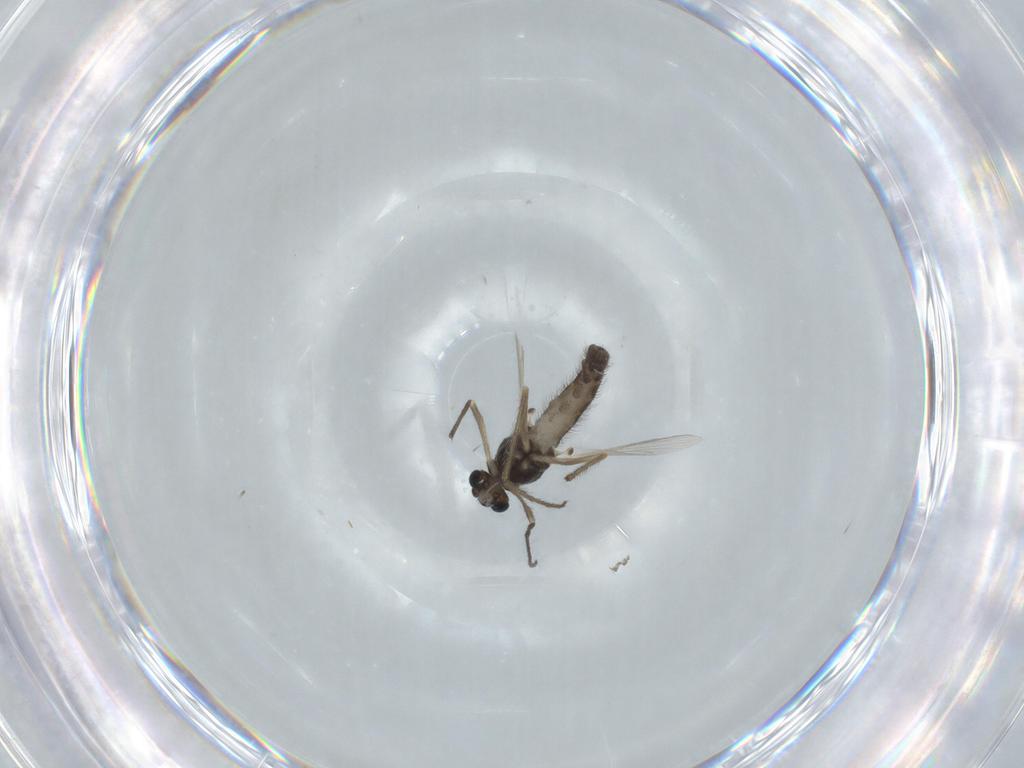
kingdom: Animalia
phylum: Arthropoda
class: Insecta
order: Diptera
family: Chironomidae
